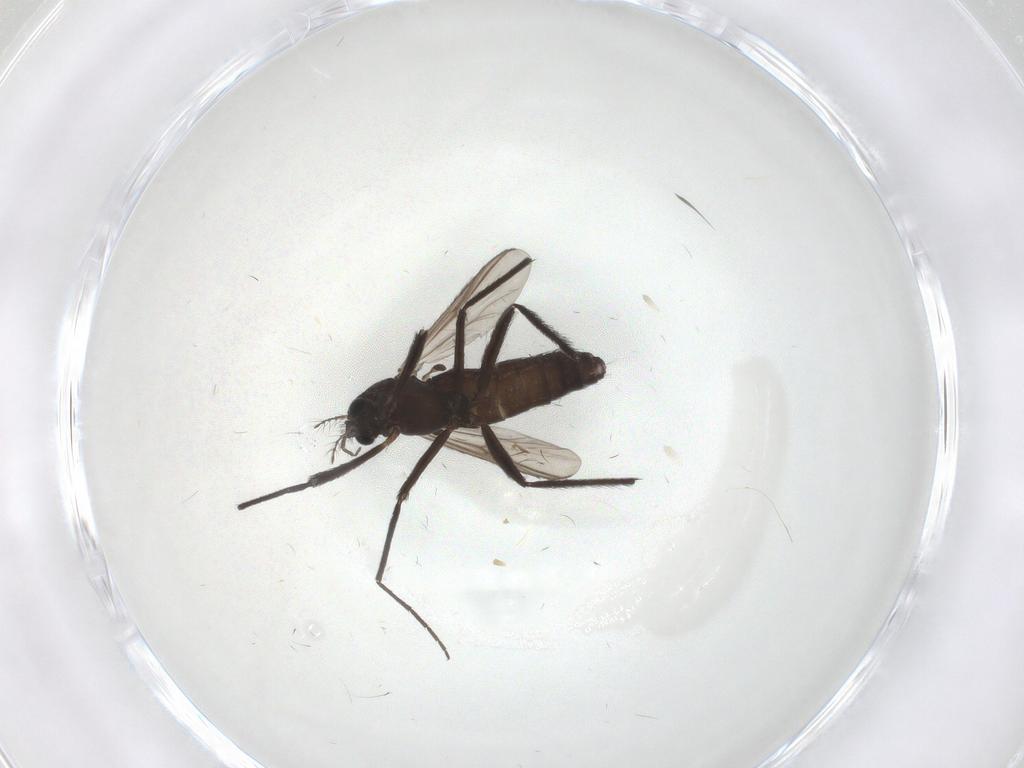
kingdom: Animalia
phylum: Arthropoda
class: Insecta
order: Diptera
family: Chironomidae
